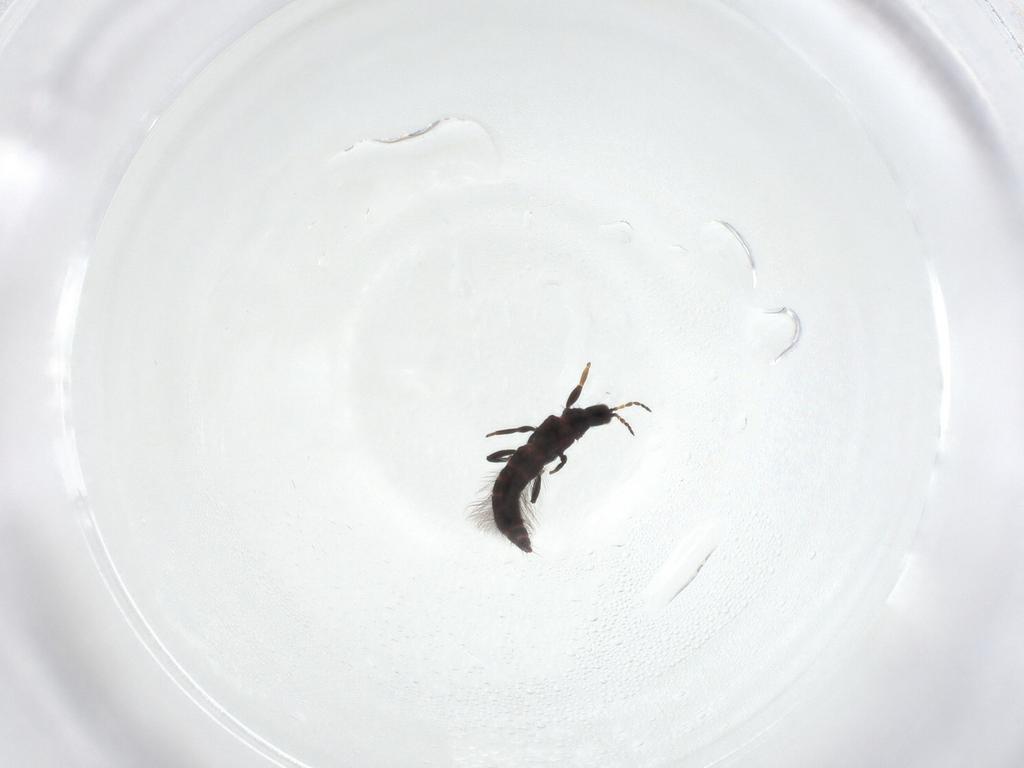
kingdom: Animalia
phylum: Arthropoda
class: Insecta
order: Thysanoptera
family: Phlaeothripidae
